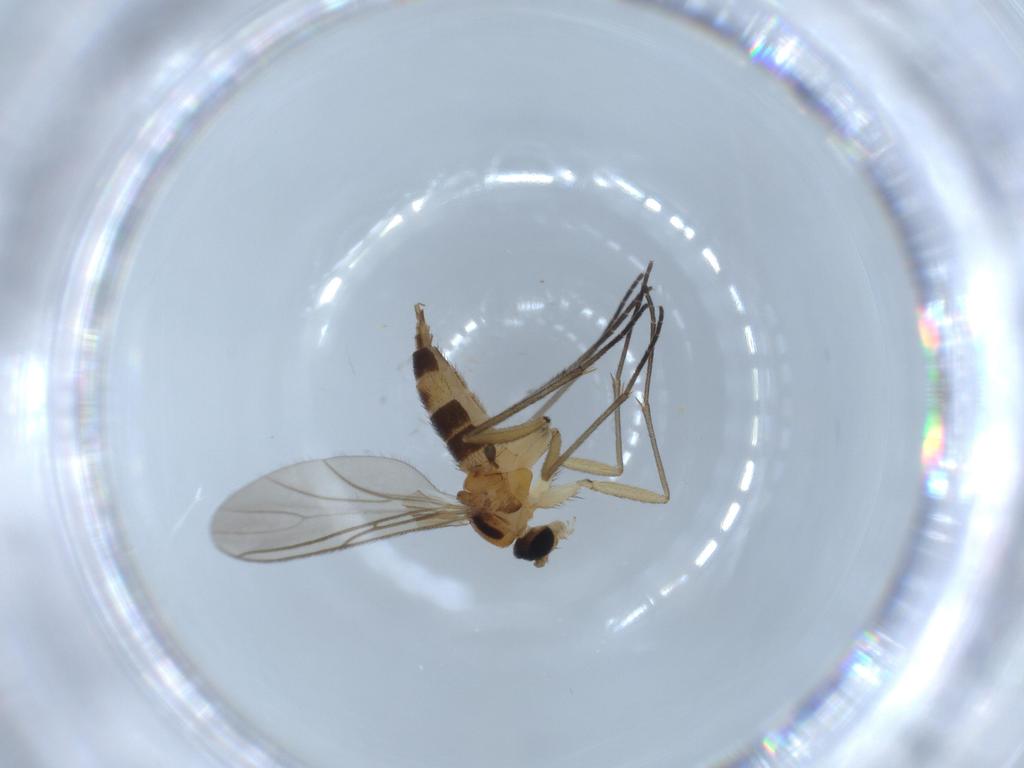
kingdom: Animalia
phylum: Arthropoda
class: Insecta
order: Diptera
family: Sciaridae
